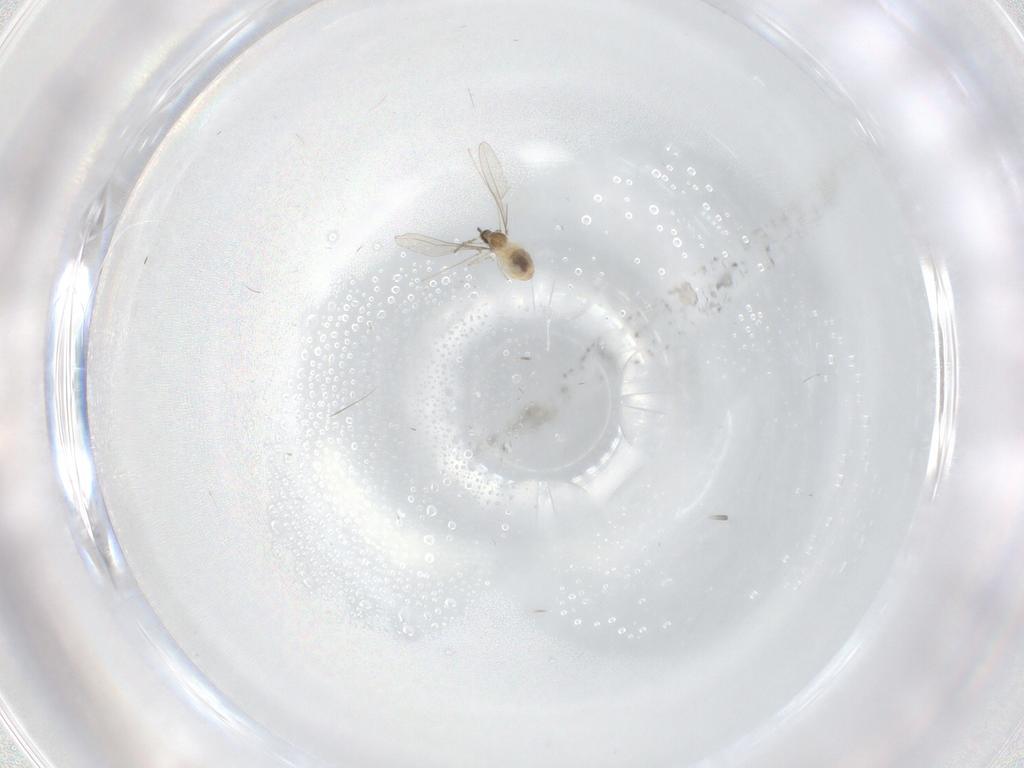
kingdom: Animalia
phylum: Arthropoda
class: Insecta
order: Diptera
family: Cecidomyiidae
